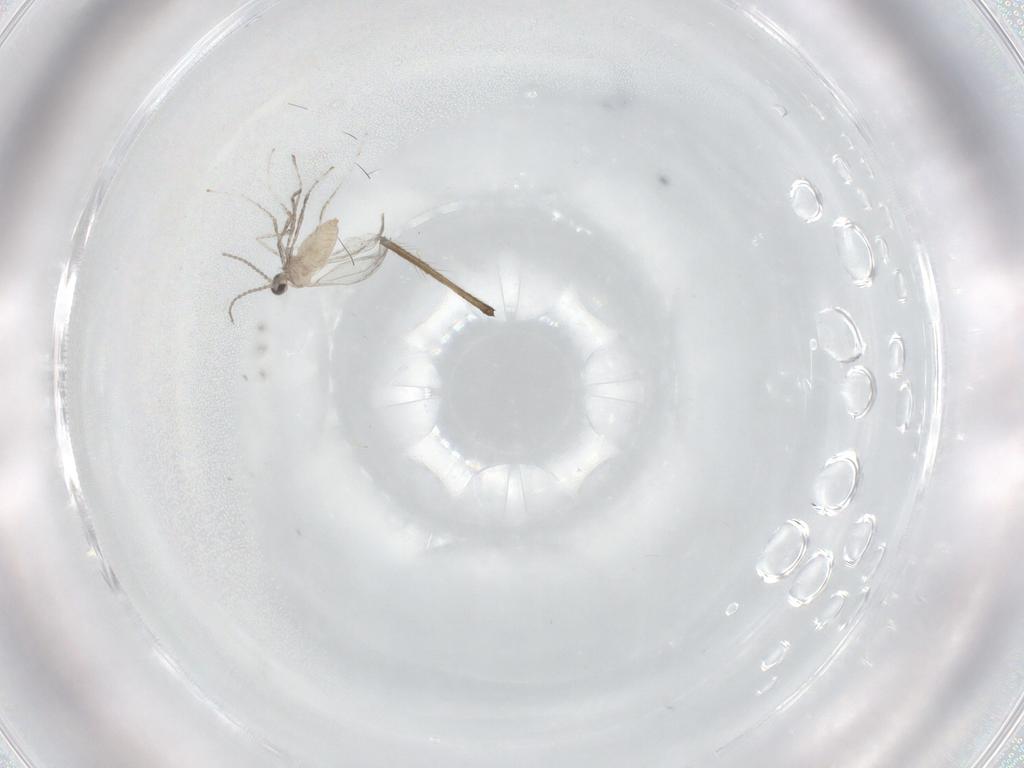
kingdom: Animalia
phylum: Arthropoda
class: Insecta
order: Diptera
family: Chironomidae
